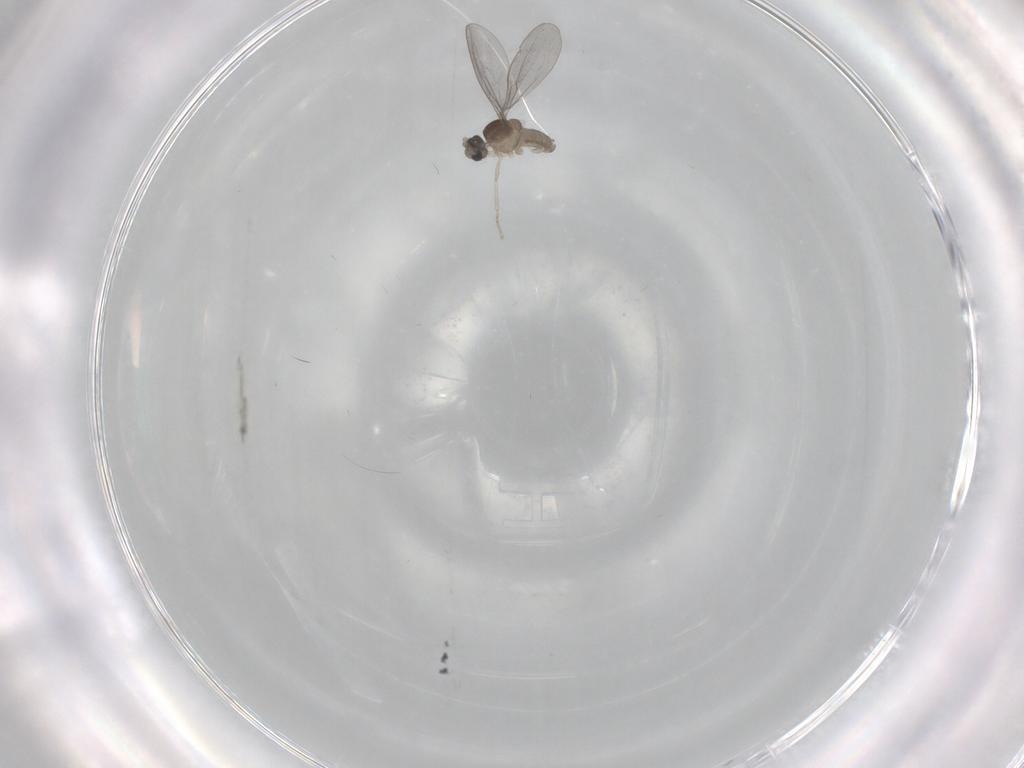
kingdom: Animalia
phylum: Arthropoda
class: Insecta
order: Diptera
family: Cecidomyiidae
